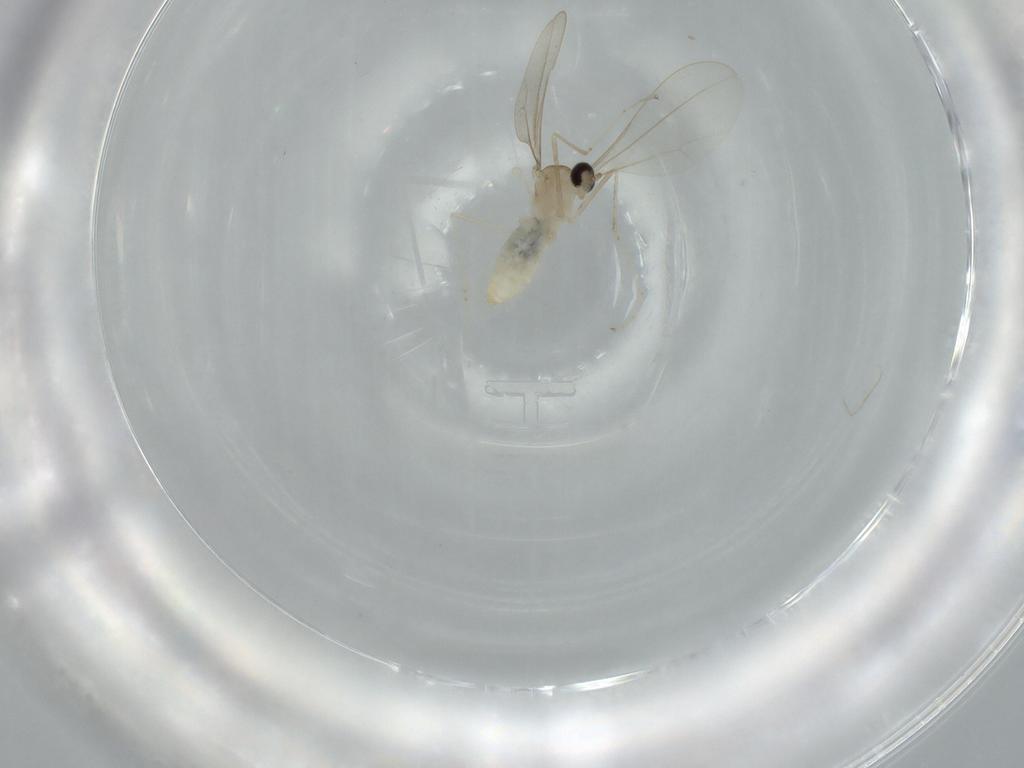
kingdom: Animalia
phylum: Arthropoda
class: Insecta
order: Diptera
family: Cecidomyiidae
